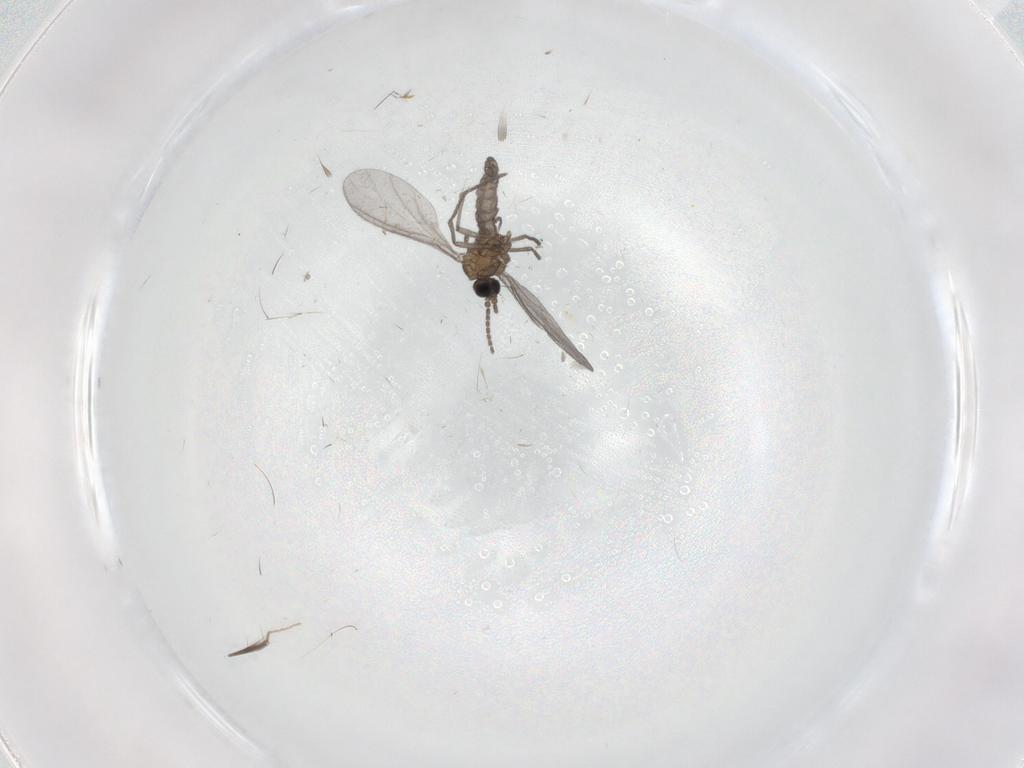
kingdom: Animalia
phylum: Arthropoda
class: Insecta
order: Diptera
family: Sciaridae
